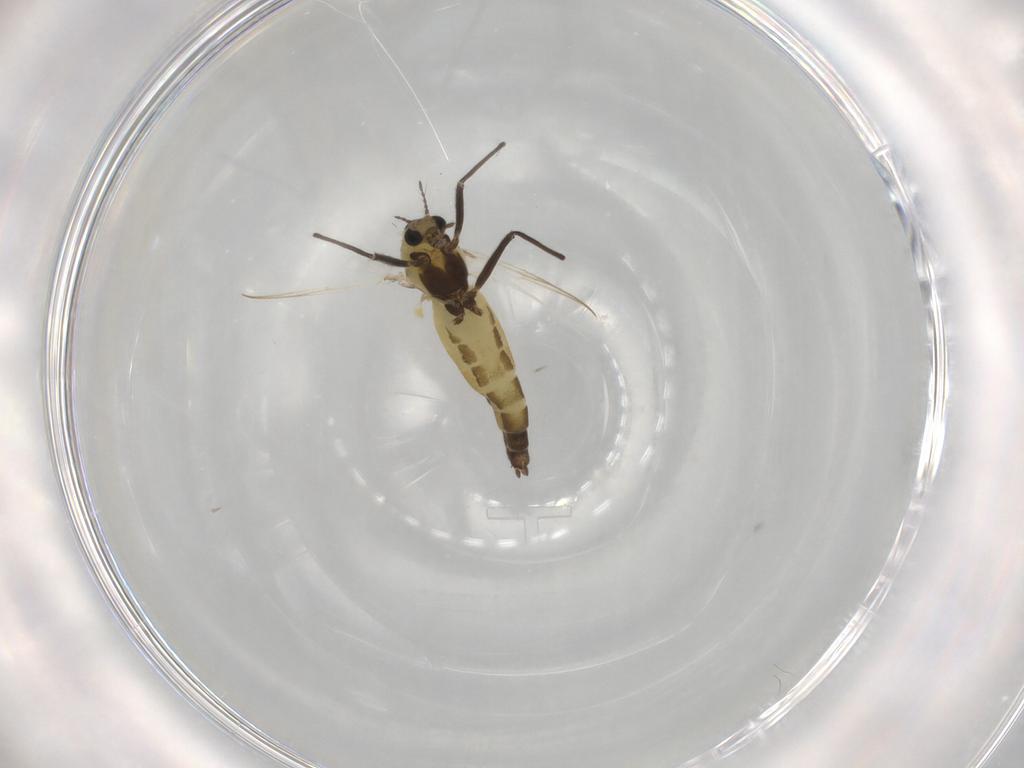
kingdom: Animalia
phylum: Arthropoda
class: Insecta
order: Diptera
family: Chironomidae
